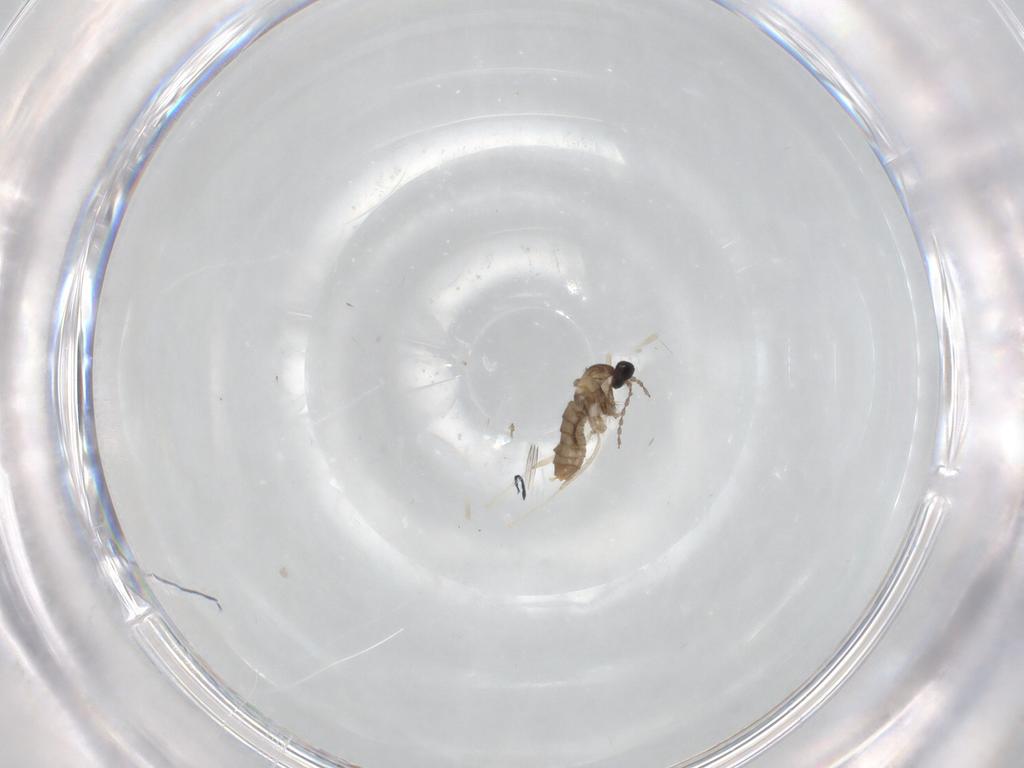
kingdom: Animalia
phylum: Arthropoda
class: Insecta
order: Diptera
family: Cecidomyiidae
